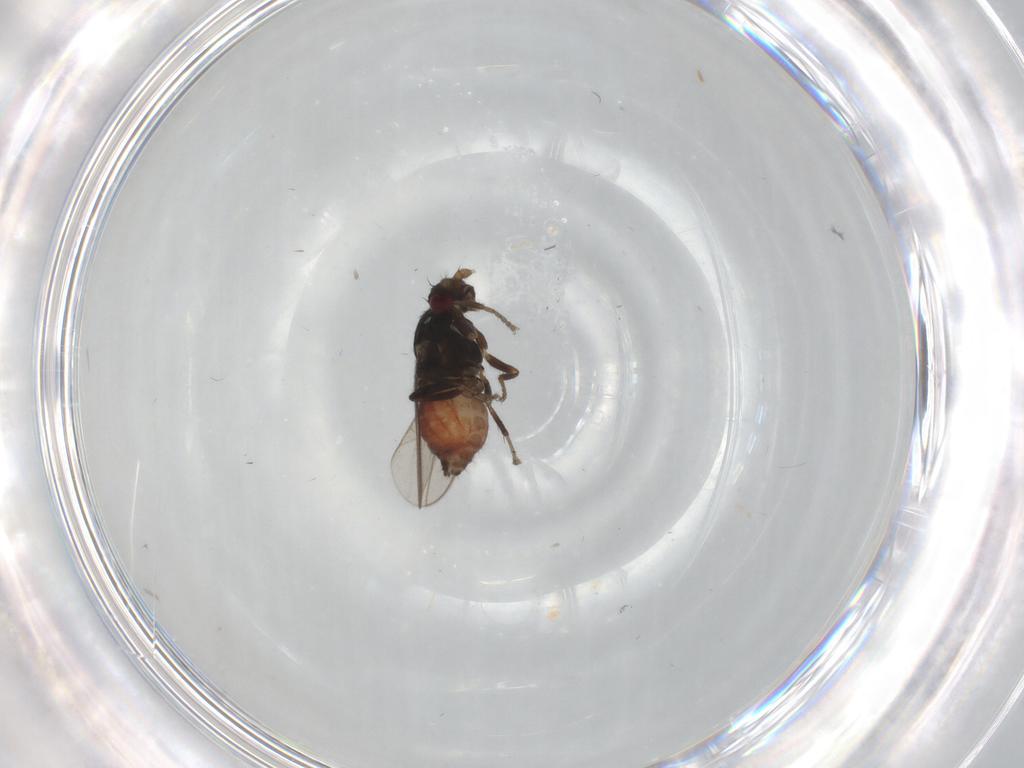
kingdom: Animalia
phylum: Arthropoda
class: Insecta
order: Diptera
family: Sphaeroceridae
